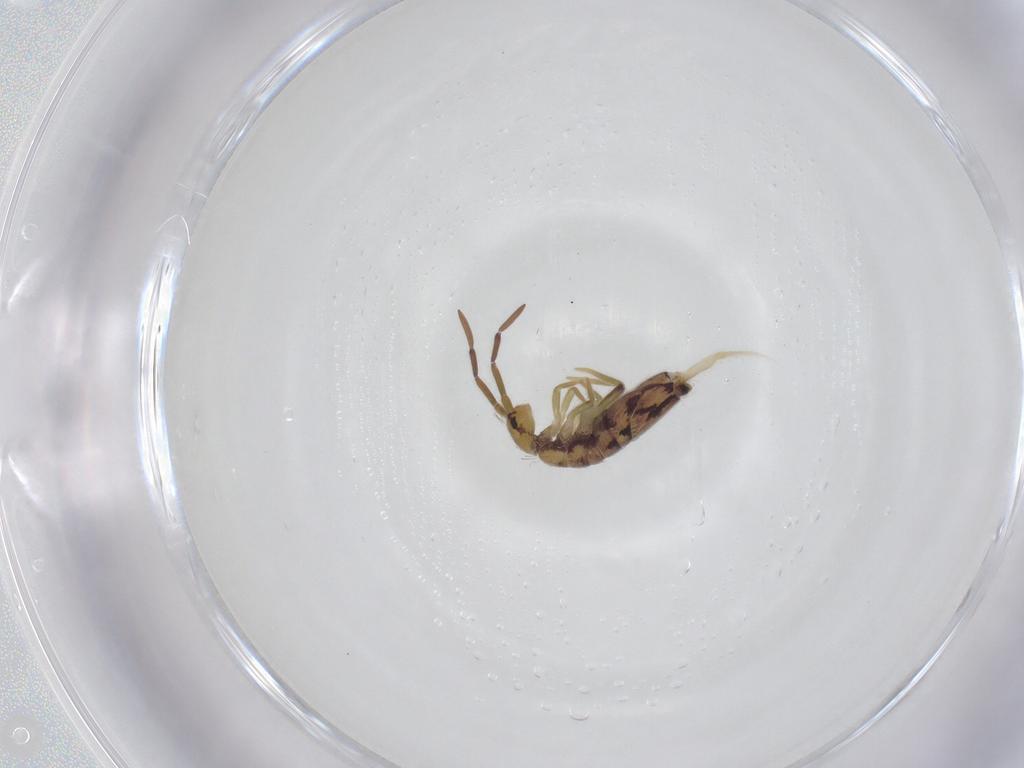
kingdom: Animalia
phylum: Arthropoda
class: Collembola
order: Entomobryomorpha
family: Entomobryidae
